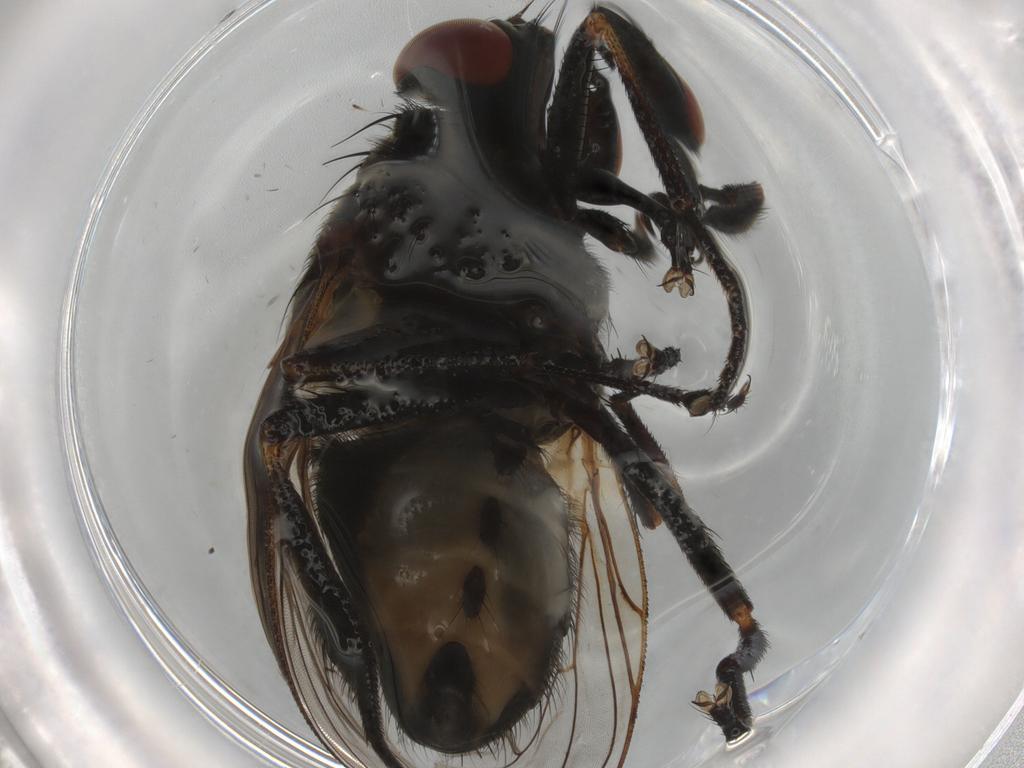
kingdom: Animalia
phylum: Arthropoda
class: Insecta
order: Diptera
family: Muscidae
